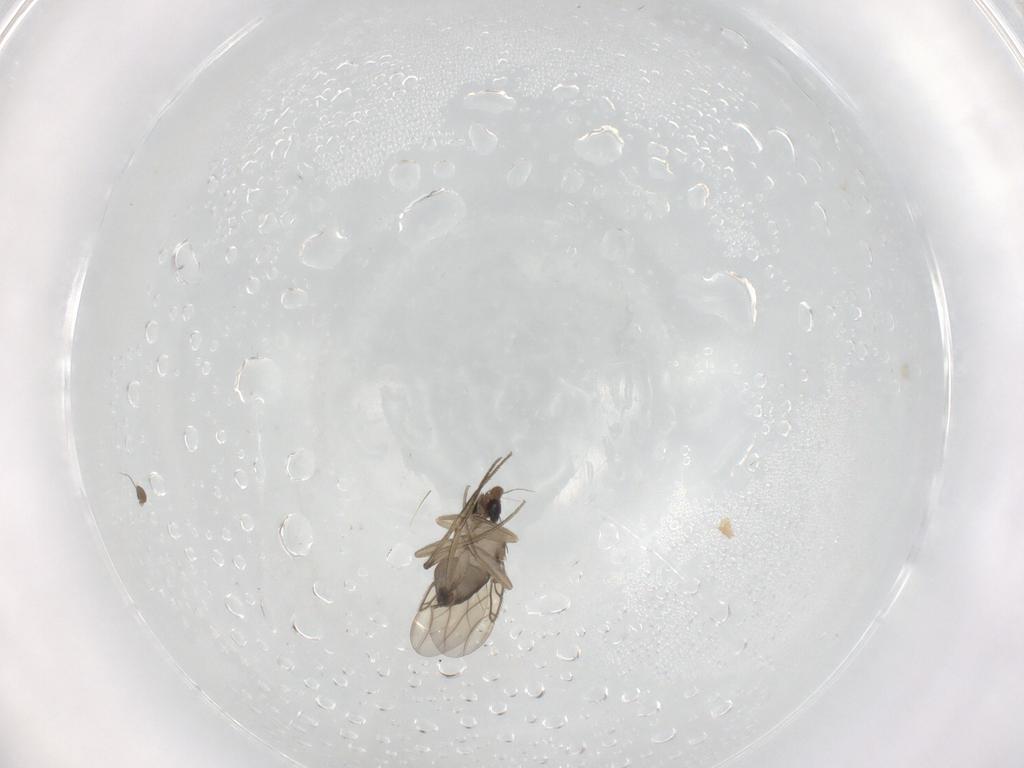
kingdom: Animalia
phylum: Arthropoda
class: Insecta
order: Diptera
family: Phoridae
